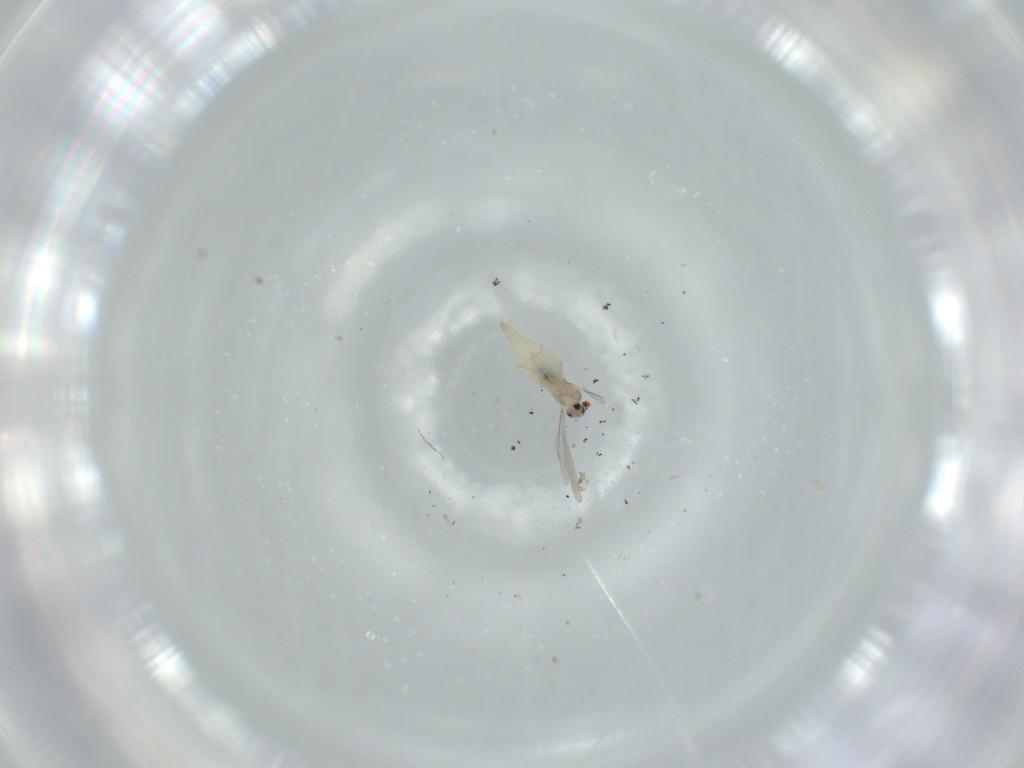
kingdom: Animalia
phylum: Arthropoda
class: Insecta
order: Diptera
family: Cecidomyiidae
